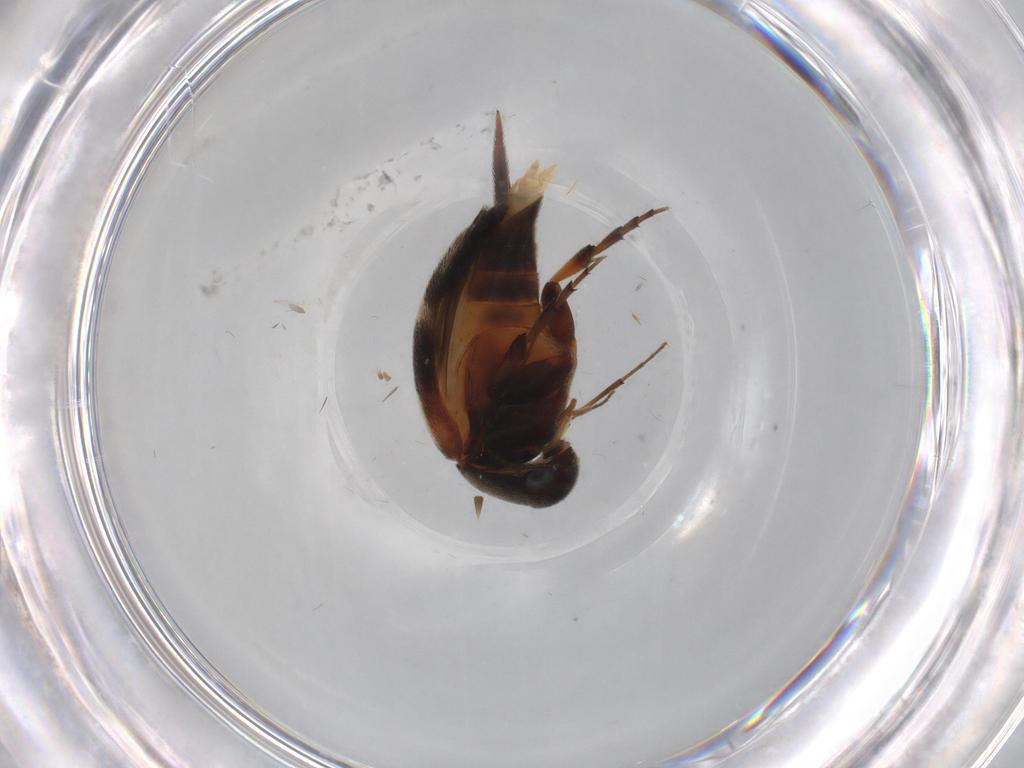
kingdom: Animalia
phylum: Arthropoda
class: Insecta
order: Coleoptera
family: Mordellidae
